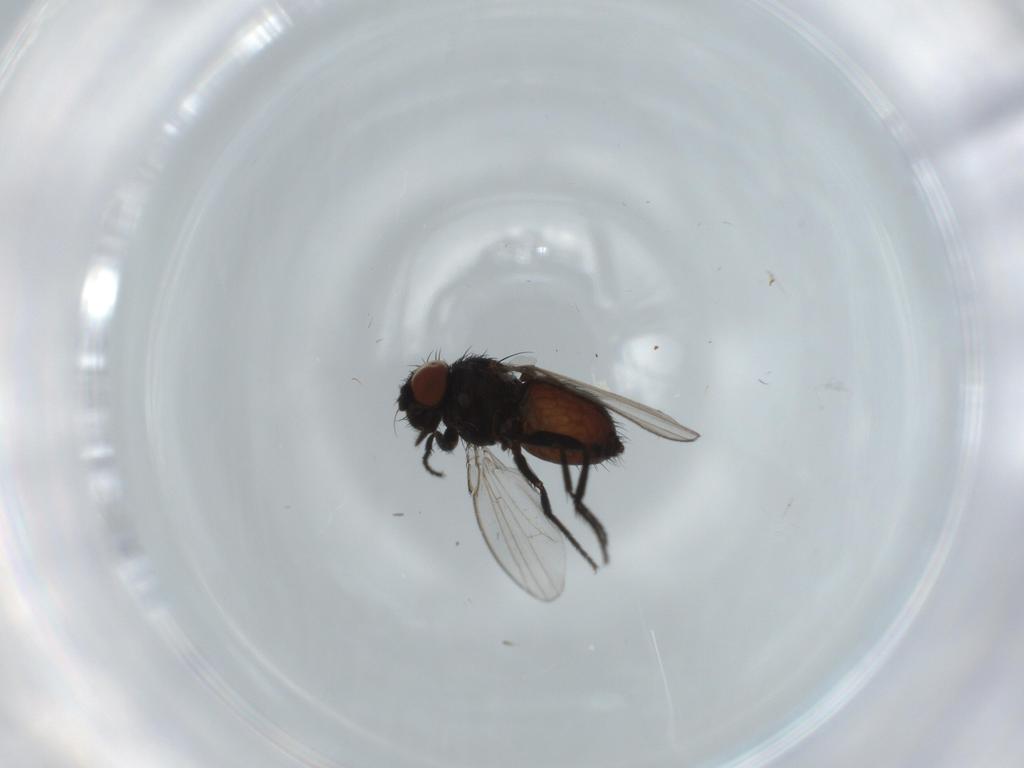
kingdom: Animalia
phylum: Arthropoda
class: Insecta
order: Diptera
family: Milichiidae
